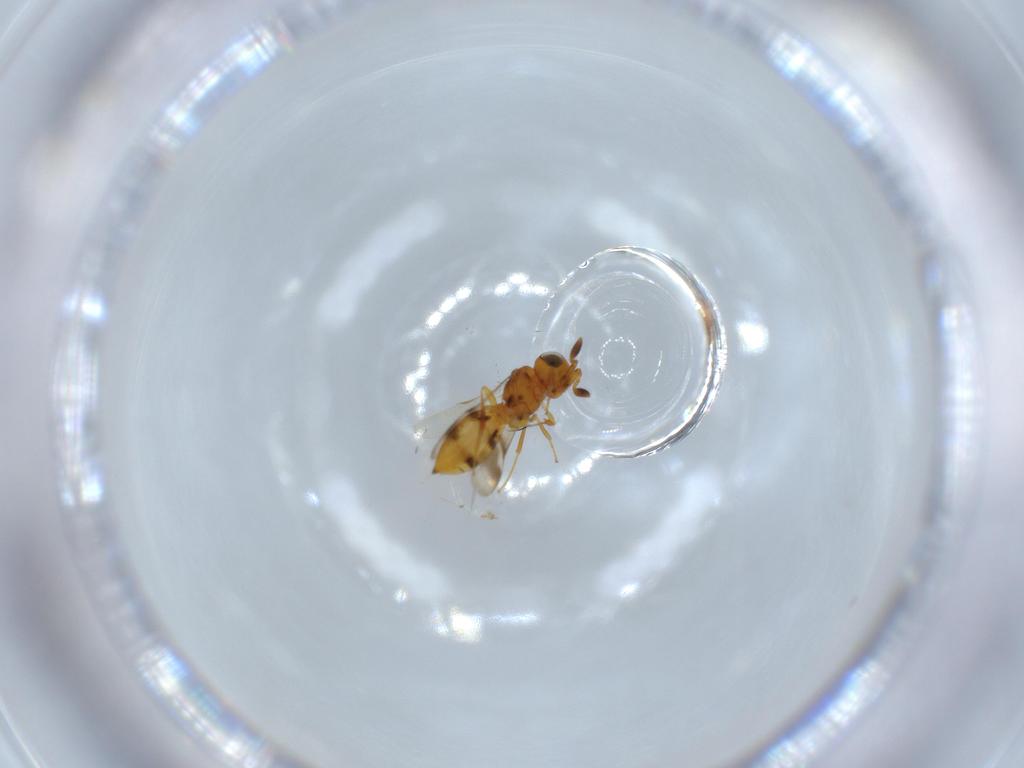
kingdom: Animalia
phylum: Arthropoda
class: Insecta
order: Hymenoptera
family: Scelionidae
